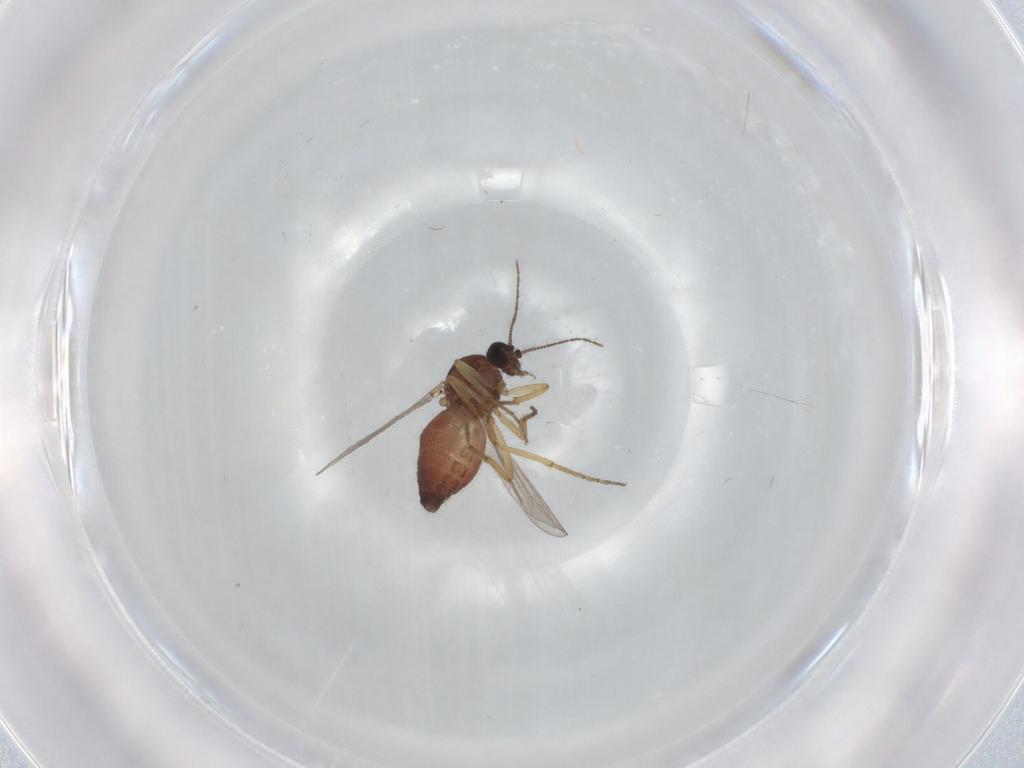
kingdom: Animalia
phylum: Arthropoda
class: Insecta
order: Diptera
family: Ceratopogonidae
